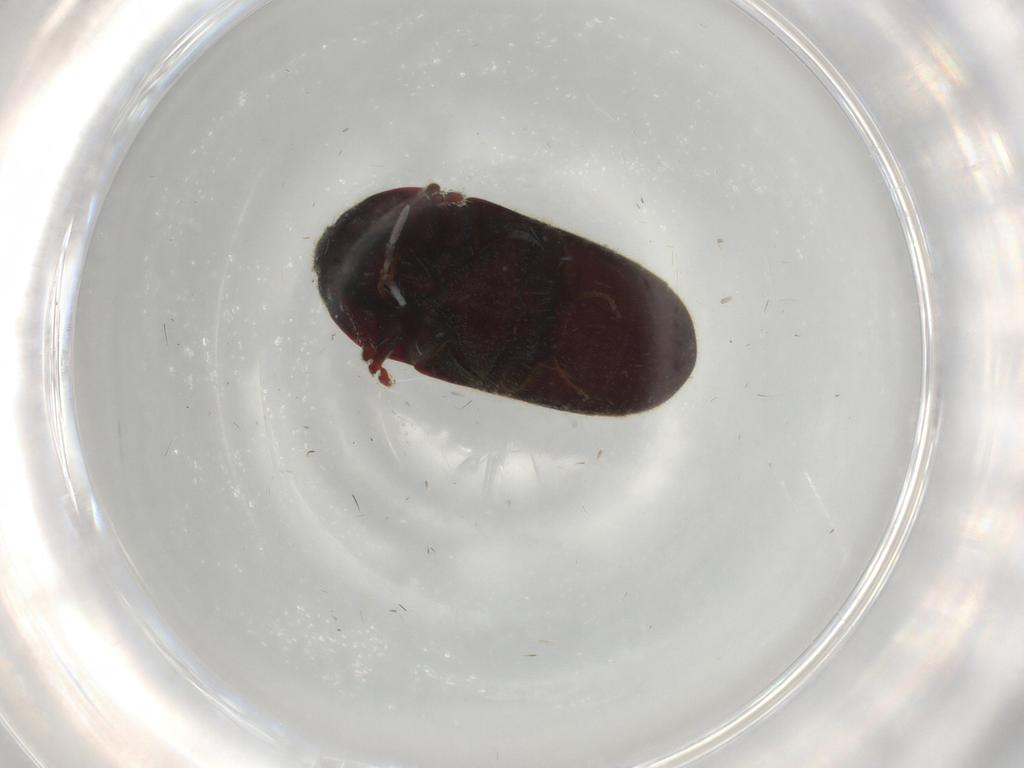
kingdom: Animalia
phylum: Arthropoda
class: Insecta
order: Coleoptera
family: Throscidae
